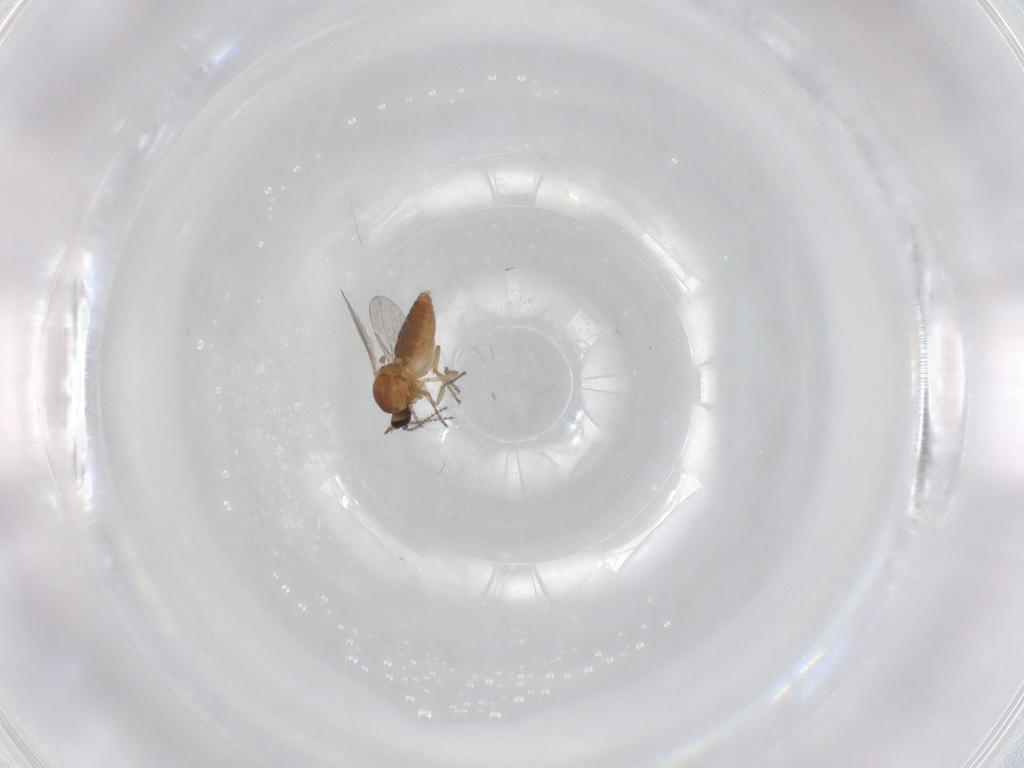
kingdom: Animalia
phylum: Arthropoda
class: Insecta
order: Diptera
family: Ceratopogonidae
